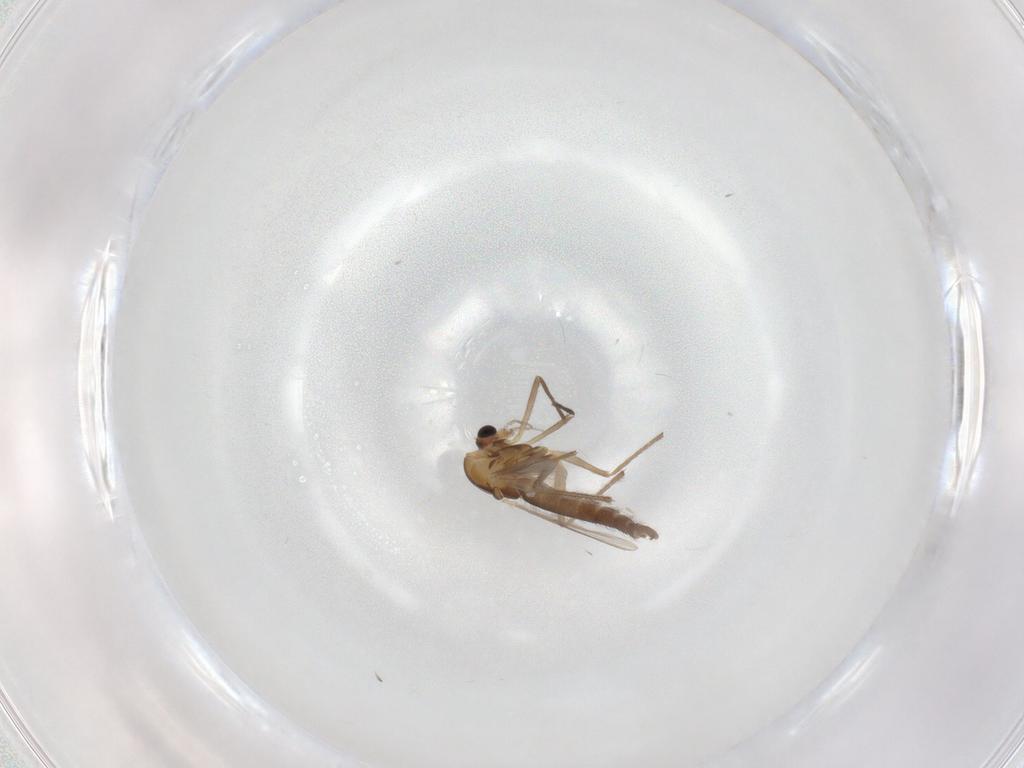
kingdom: Animalia
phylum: Arthropoda
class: Insecta
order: Diptera
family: Chironomidae
